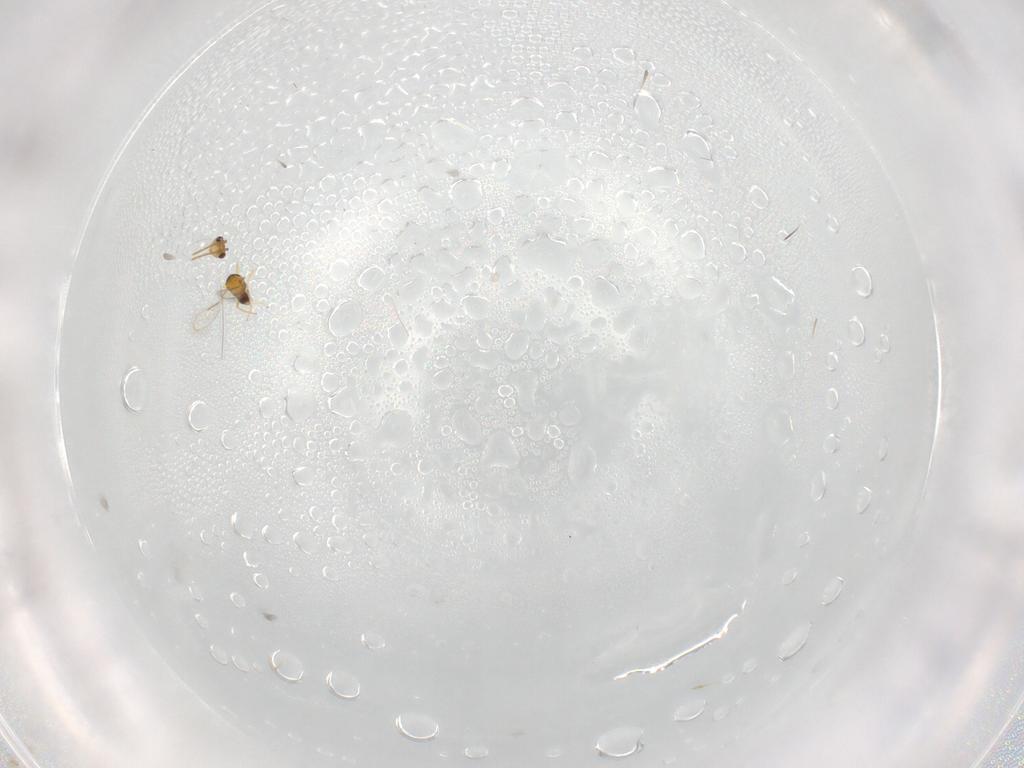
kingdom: Animalia
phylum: Arthropoda
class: Insecta
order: Hymenoptera
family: Aphelinidae
